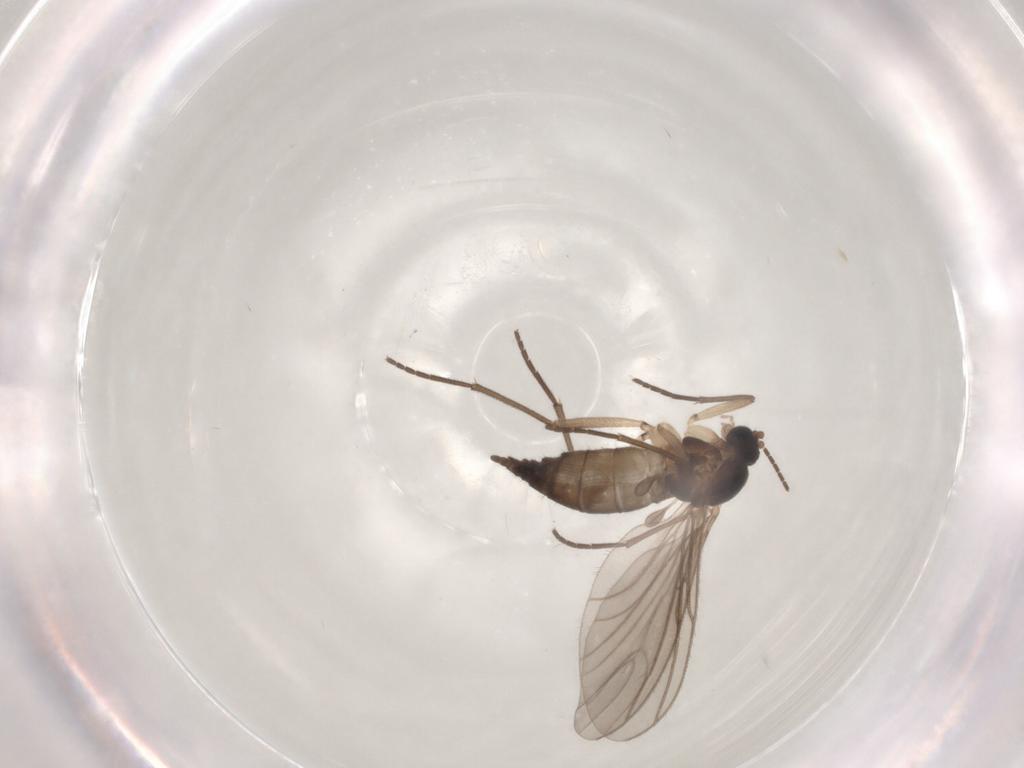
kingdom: Animalia
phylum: Arthropoda
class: Insecta
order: Diptera
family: Sciaridae
